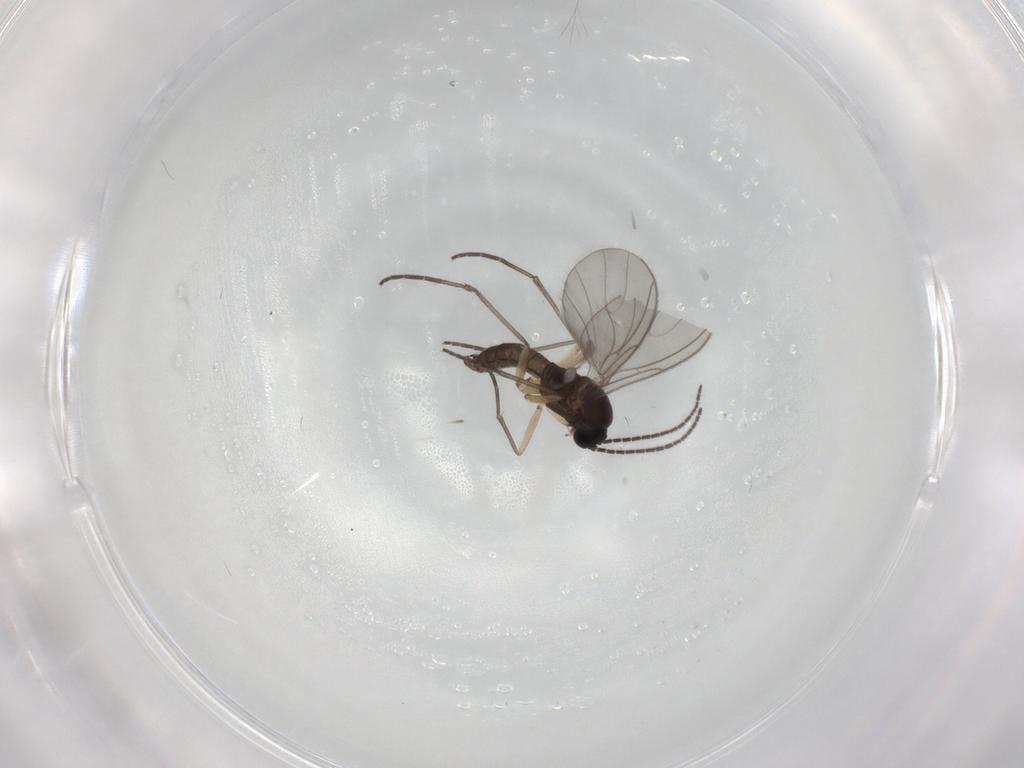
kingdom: Animalia
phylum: Arthropoda
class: Insecta
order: Diptera
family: Sciaridae
